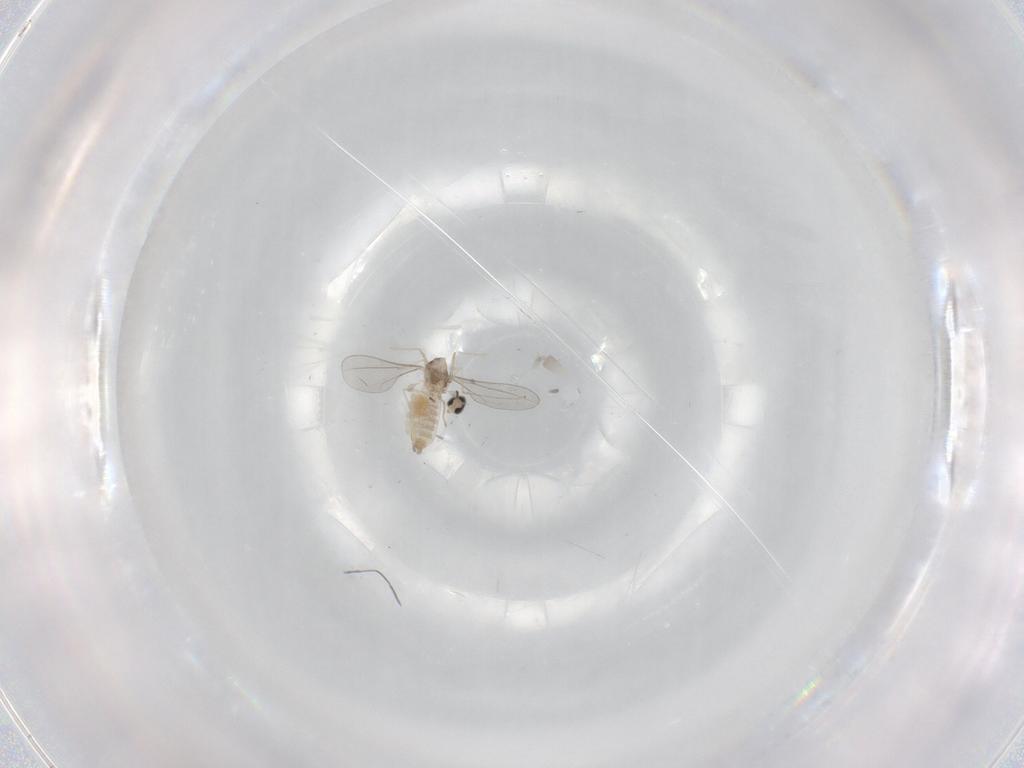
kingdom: Animalia
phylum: Arthropoda
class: Insecta
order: Diptera
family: Cecidomyiidae
